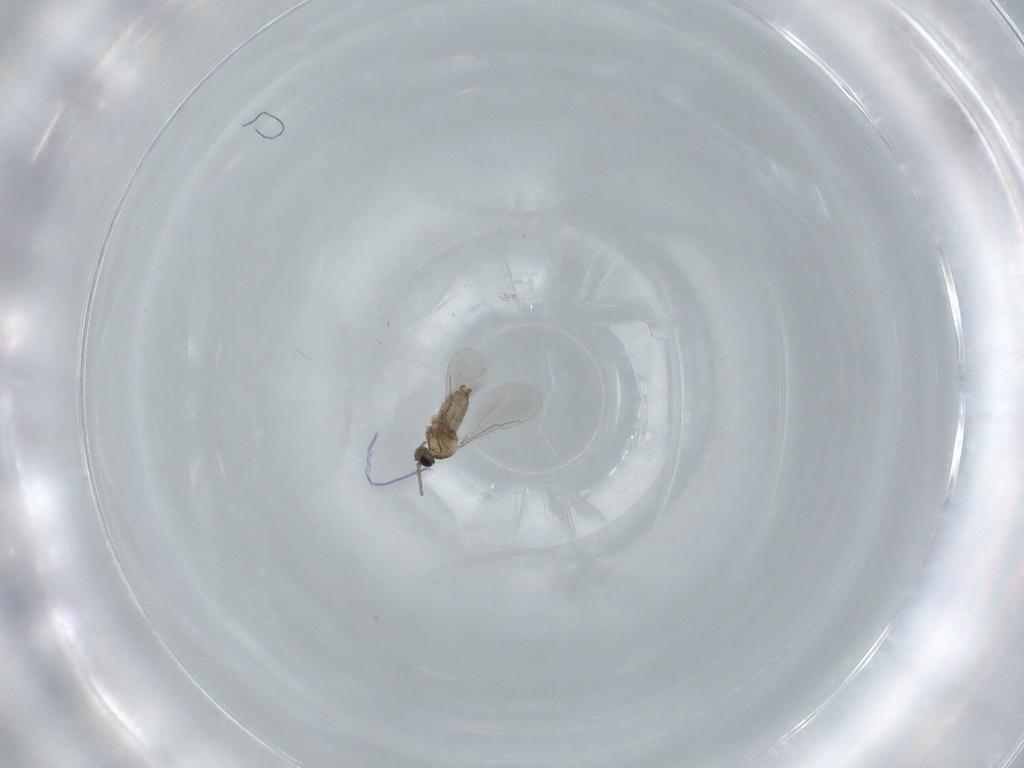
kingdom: Animalia
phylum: Arthropoda
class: Insecta
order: Diptera
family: Cecidomyiidae
